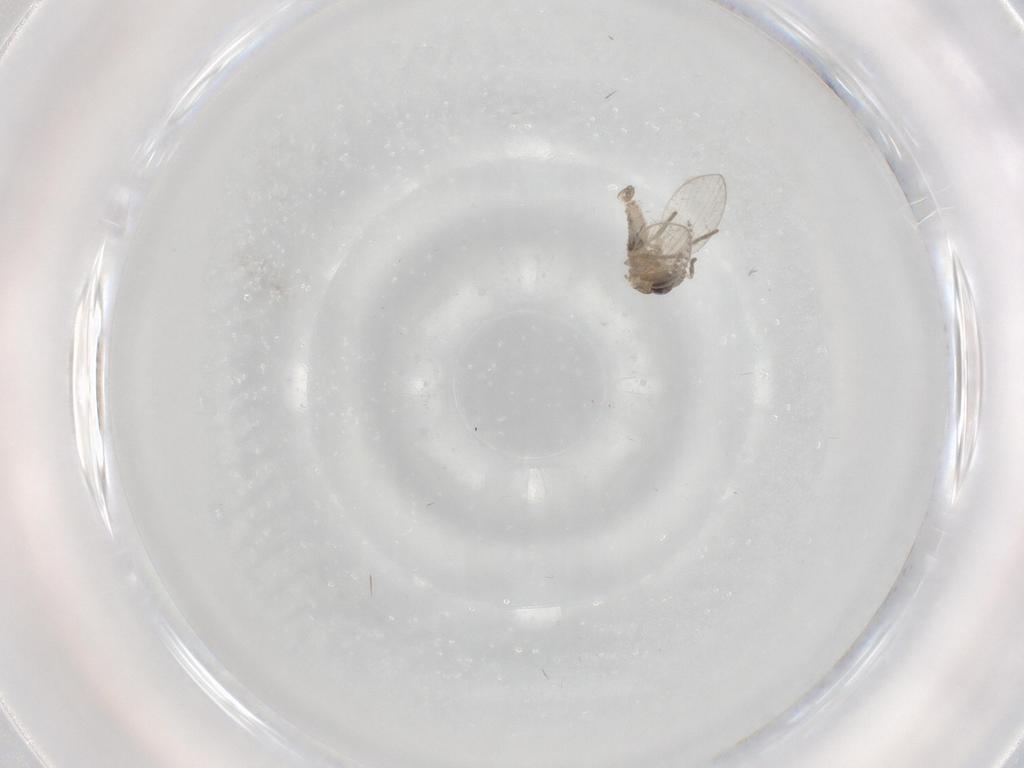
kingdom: Animalia
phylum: Arthropoda
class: Insecta
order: Diptera
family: Psychodidae
